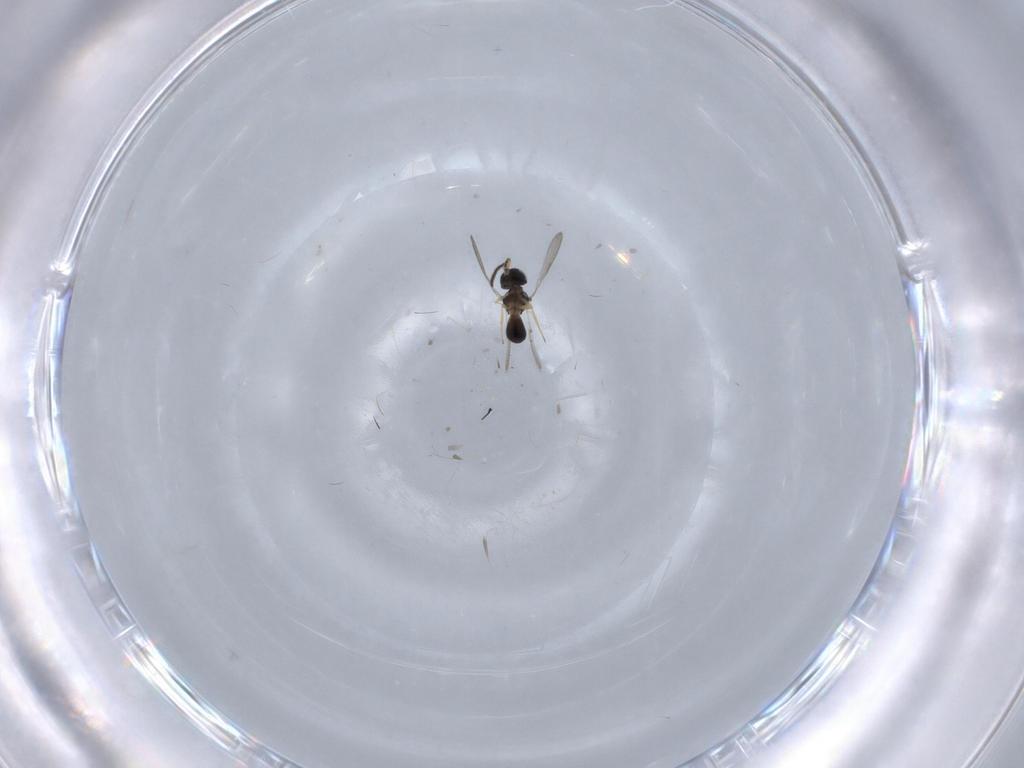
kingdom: Animalia
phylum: Arthropoda
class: Insecta
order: Hymenoptera
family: Scelionidae
